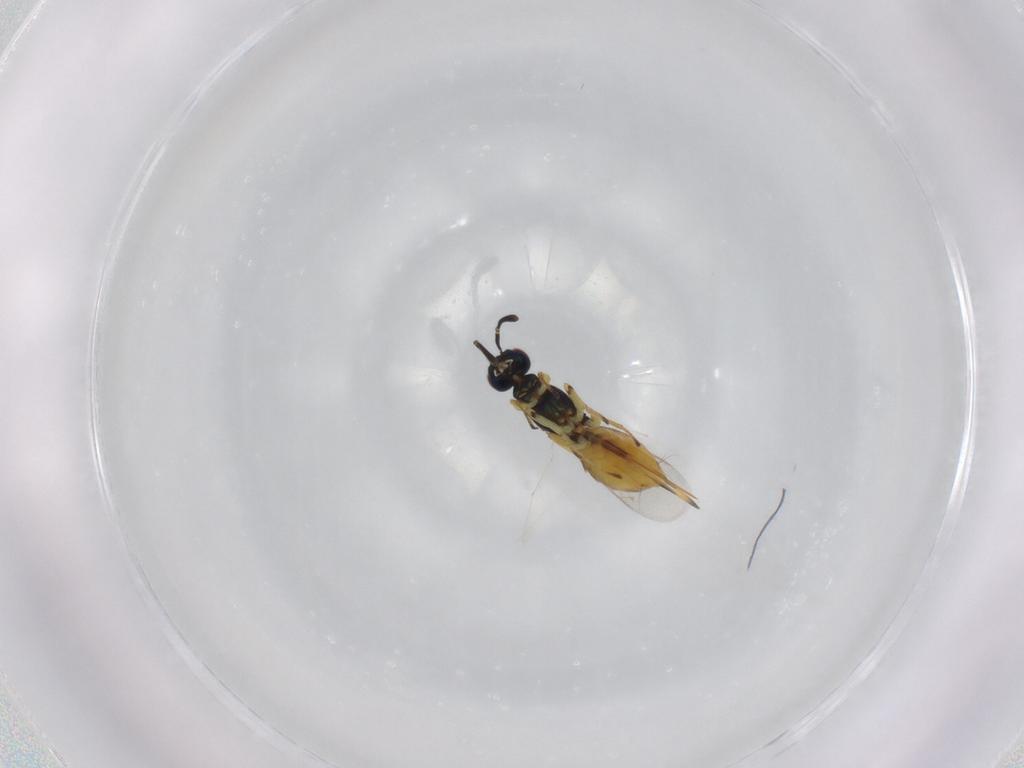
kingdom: Animalia
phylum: Arthropoda
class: Insecta
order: Hymenoptera
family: Eupelmidae
